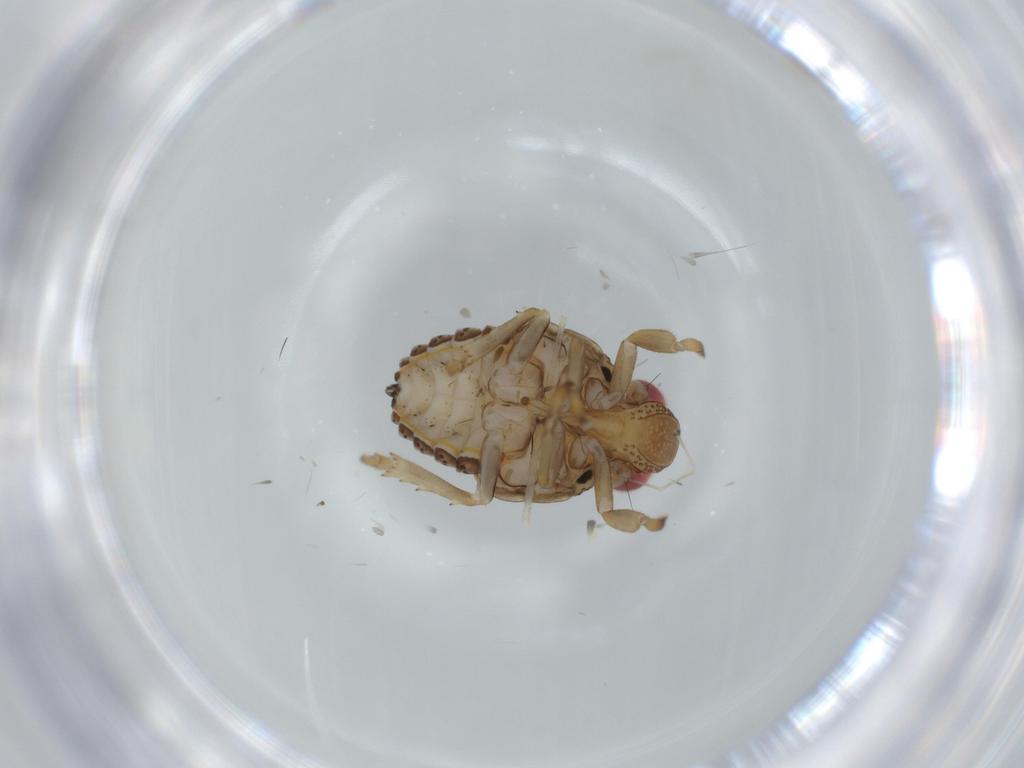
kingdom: Animalia
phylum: Arthropoda
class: Insecta
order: Hemiptera
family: Issidae
